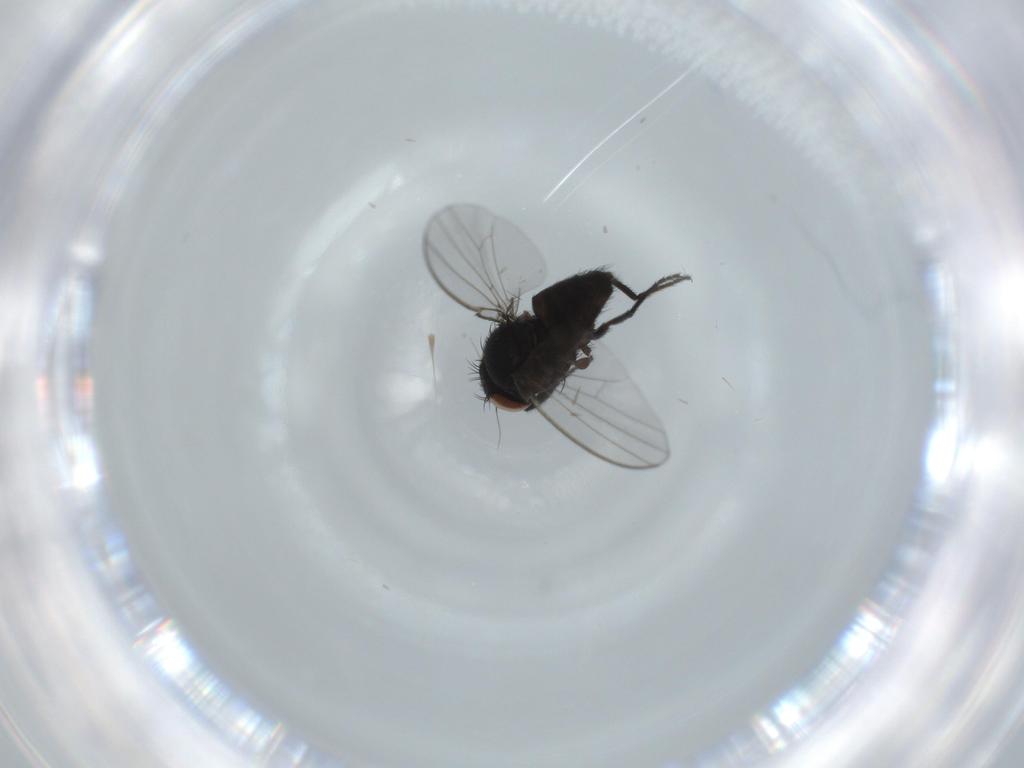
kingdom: Animalia
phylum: Arthropoda
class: Insecta
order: Diptera
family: Milichiidae
